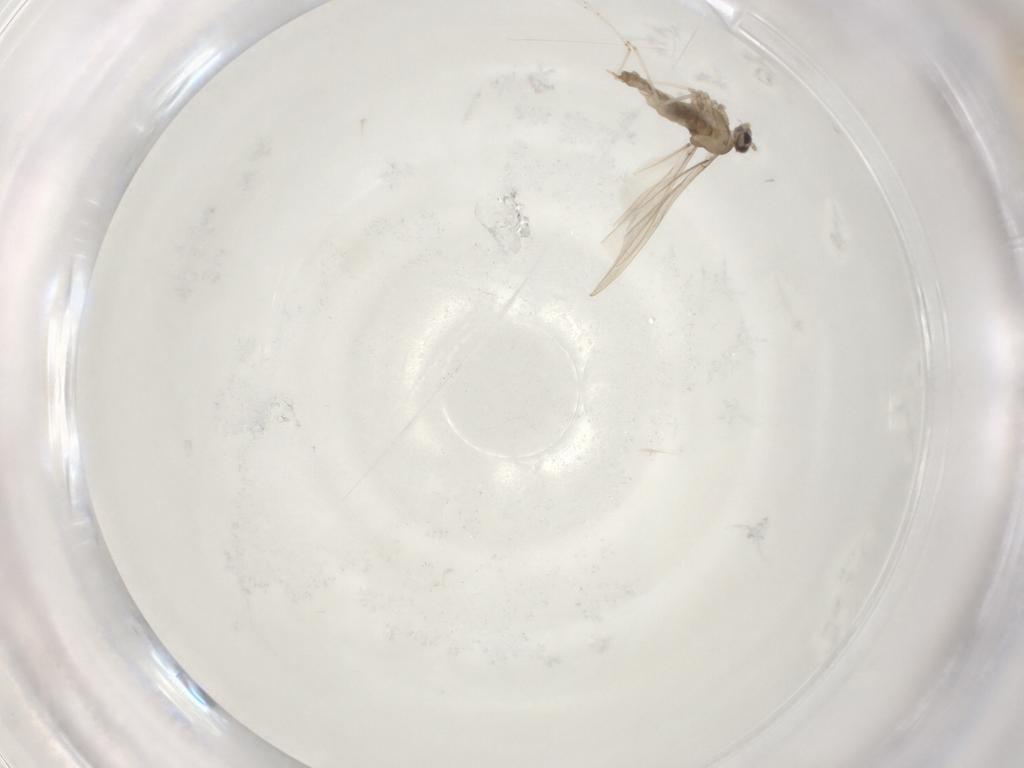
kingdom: Animalia
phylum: Arthropoda
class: Insecta
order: Diptera
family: Cecidomyiidae
